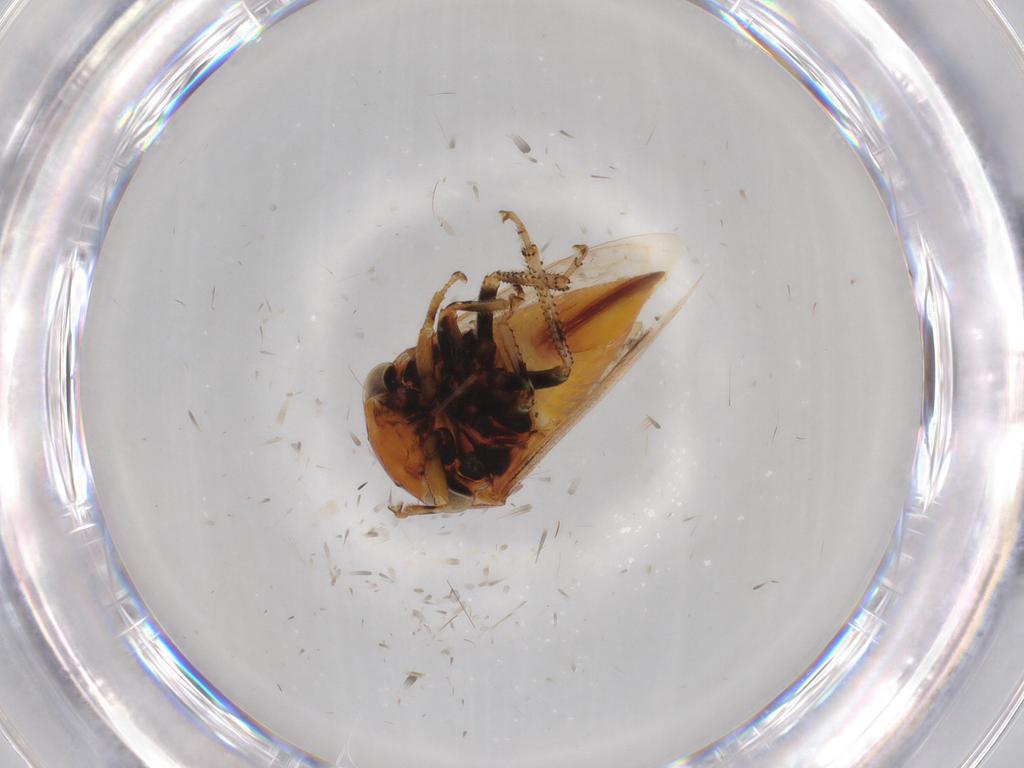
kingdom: Animalia
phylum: Arthropoda
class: Insecta
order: Hemiptera
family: Membracidae
